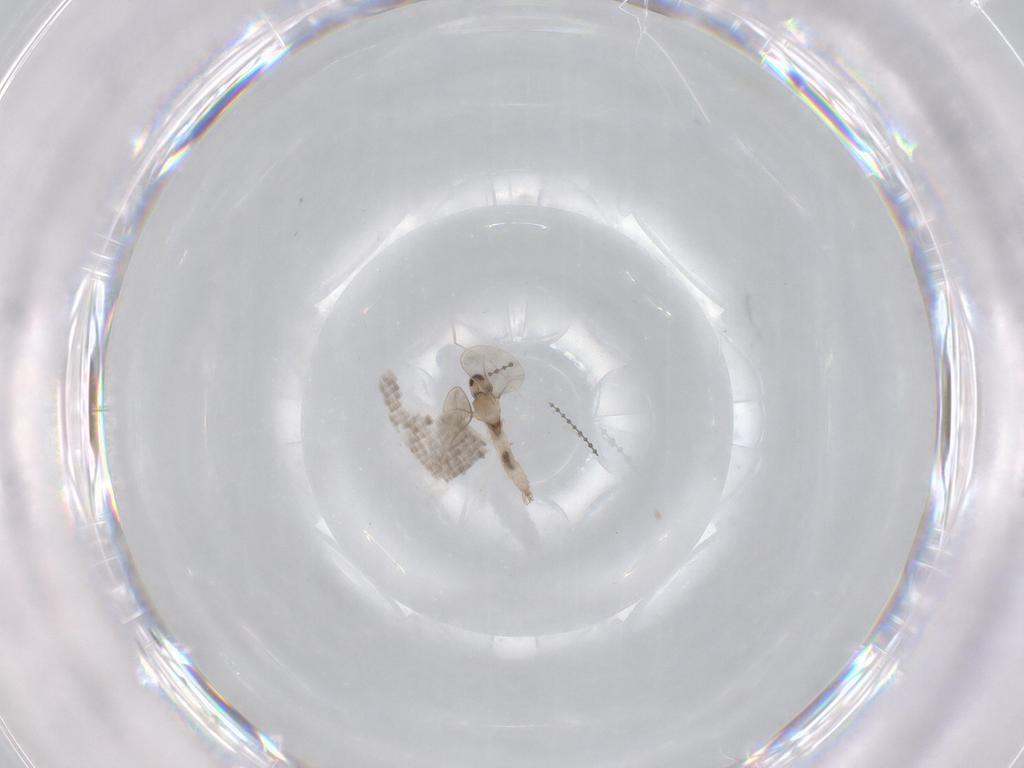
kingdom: Animalia
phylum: Arthropoda
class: Insecta
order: Diptera
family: Cecidomyiidae
